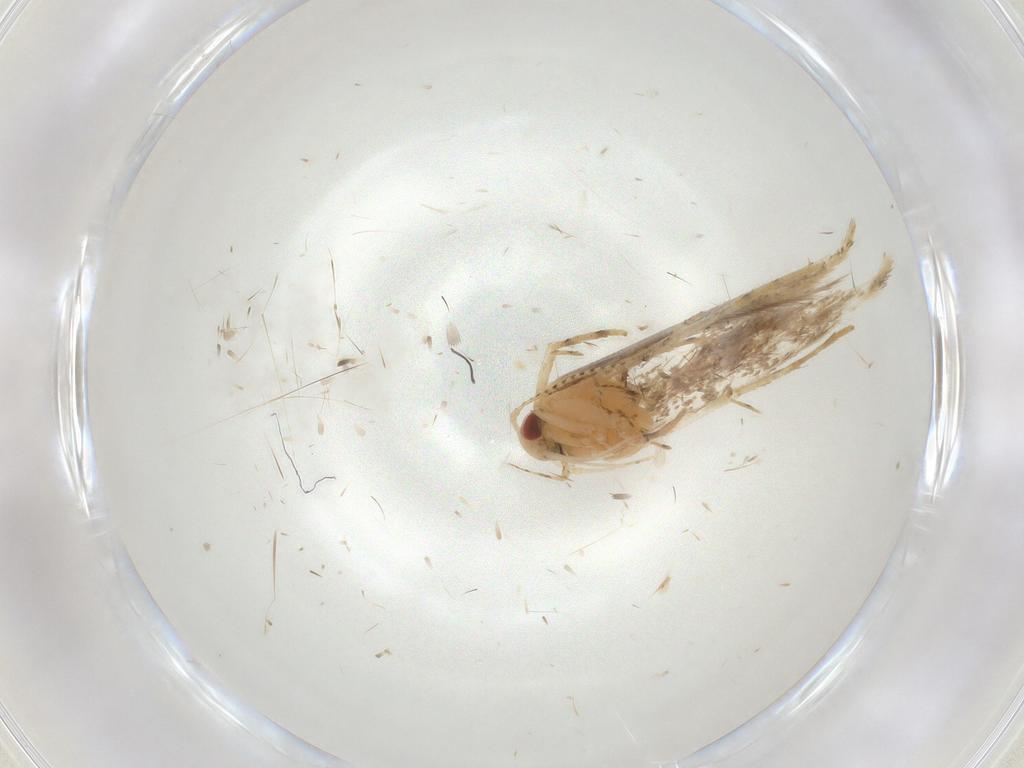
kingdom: Animalia
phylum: Arthropoda
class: Insecta
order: Lepidoptera
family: Cosmopterigidae
